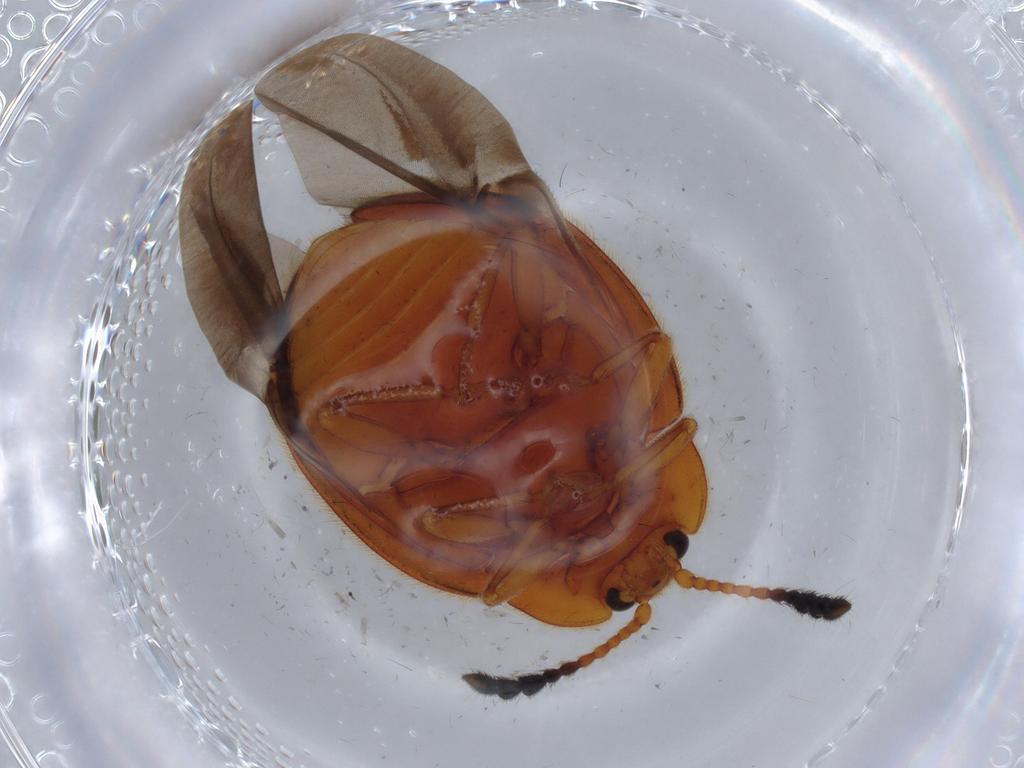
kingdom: Animalia
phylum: Arthropoda
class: Insecta
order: Coleoptera
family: Endomychidae
